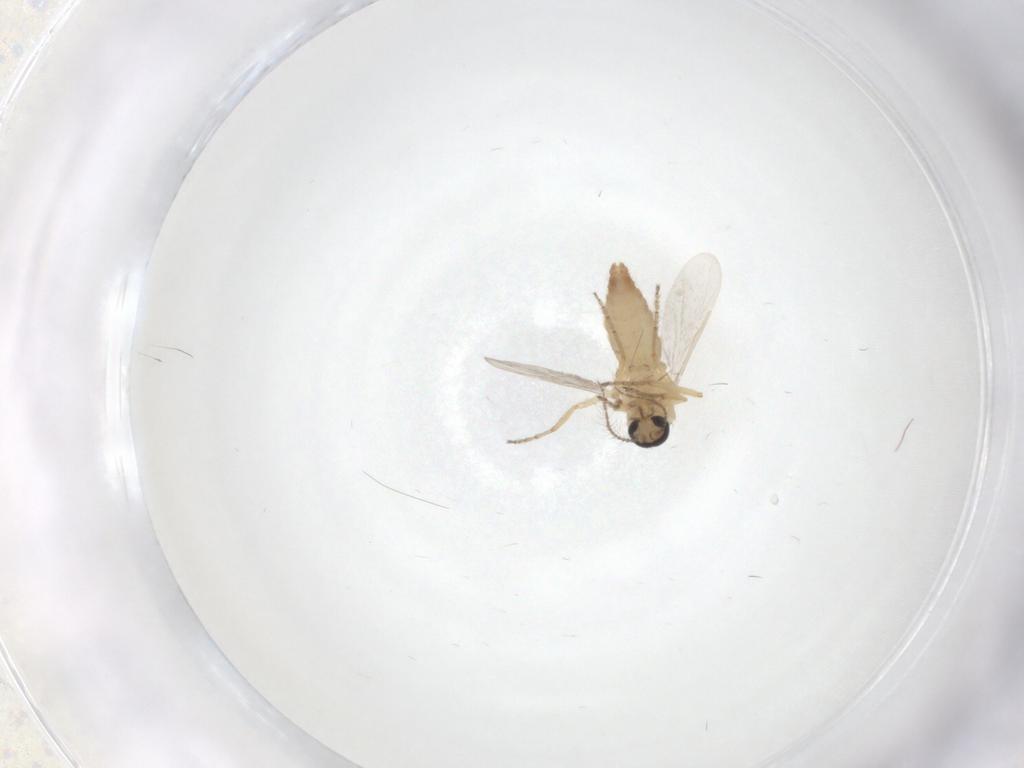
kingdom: Animalia
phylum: Arthropoda
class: Insecta
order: Diptera
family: Ceratopogonidae
